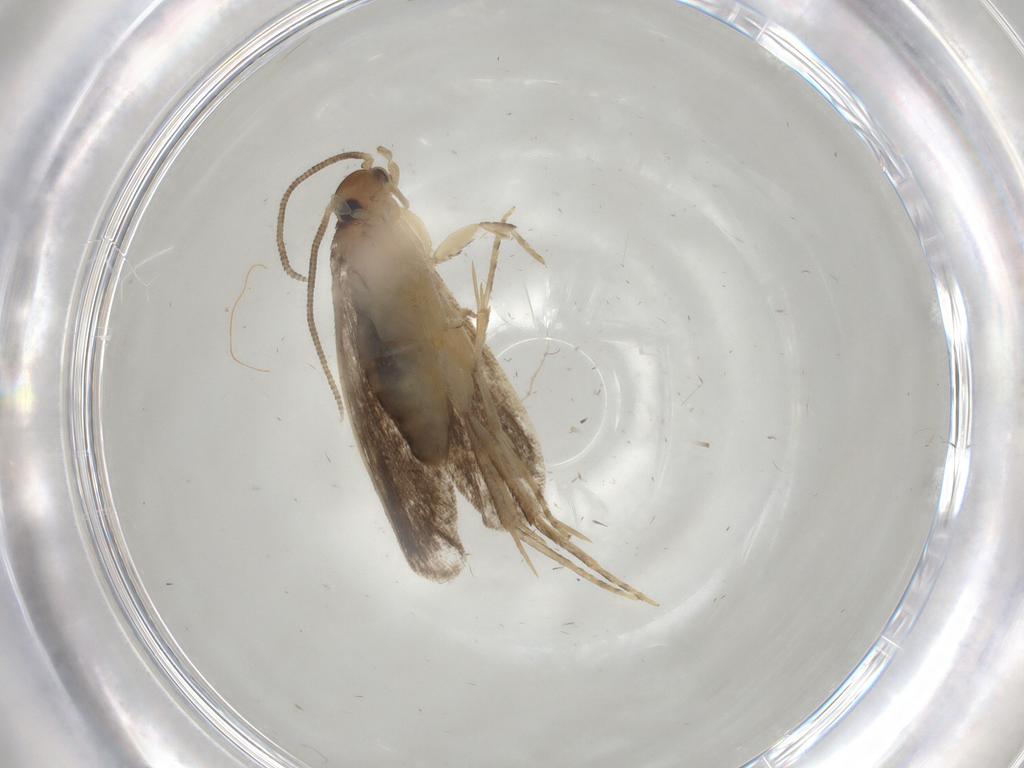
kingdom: Animalia
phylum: Arthropoda
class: Insecta
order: Lepidoptera
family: Dryadaulidae
